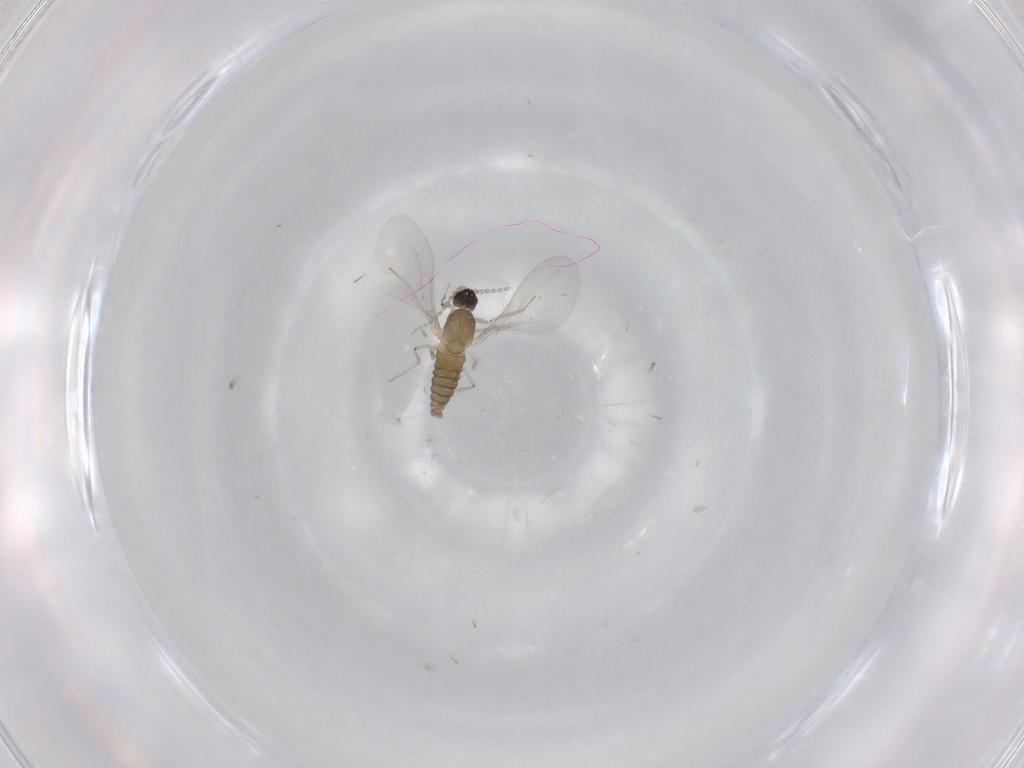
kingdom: Animalia
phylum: Arthropoda
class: Insecta
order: Diptera
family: Cecidomyiidae
